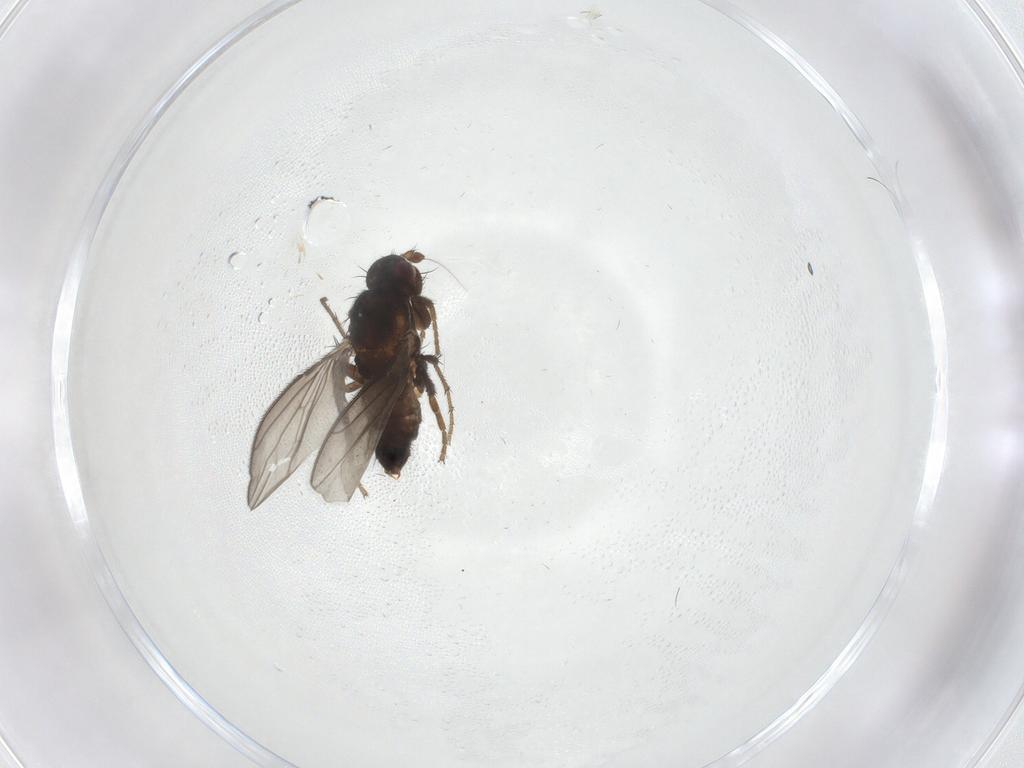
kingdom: Animalia
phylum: Arthropoda
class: Insecta
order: Diptera
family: Sphaeroceridae
